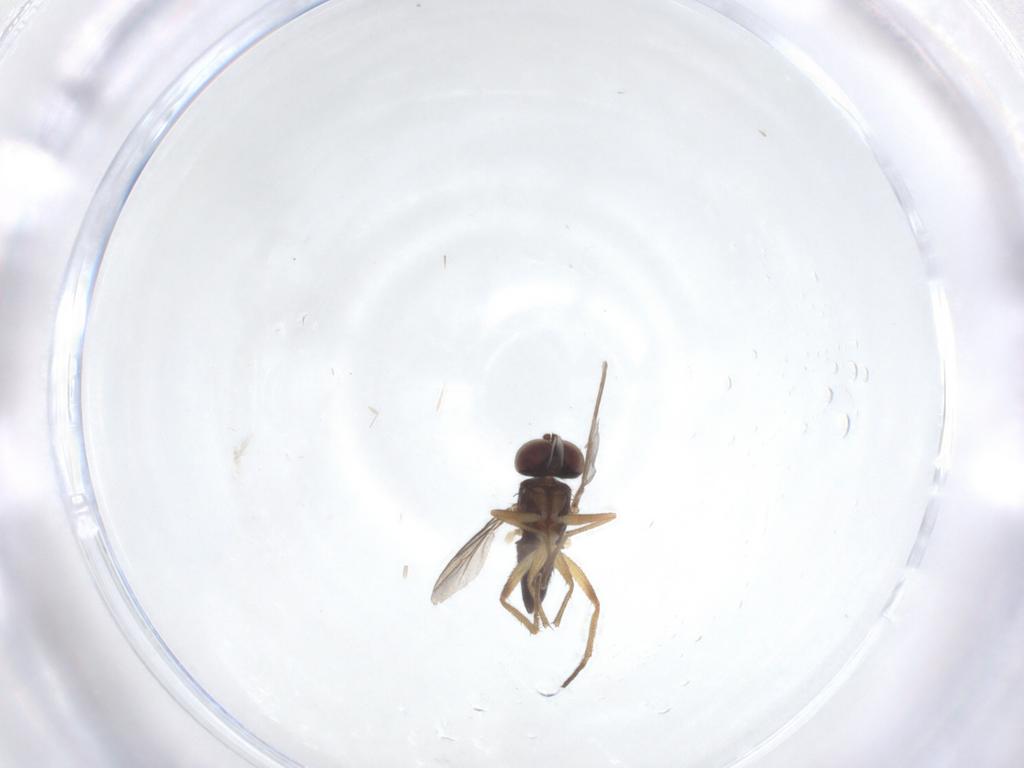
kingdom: Animalia
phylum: Arthropoda
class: Insecta
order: Diptera
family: Dolichopodidae
